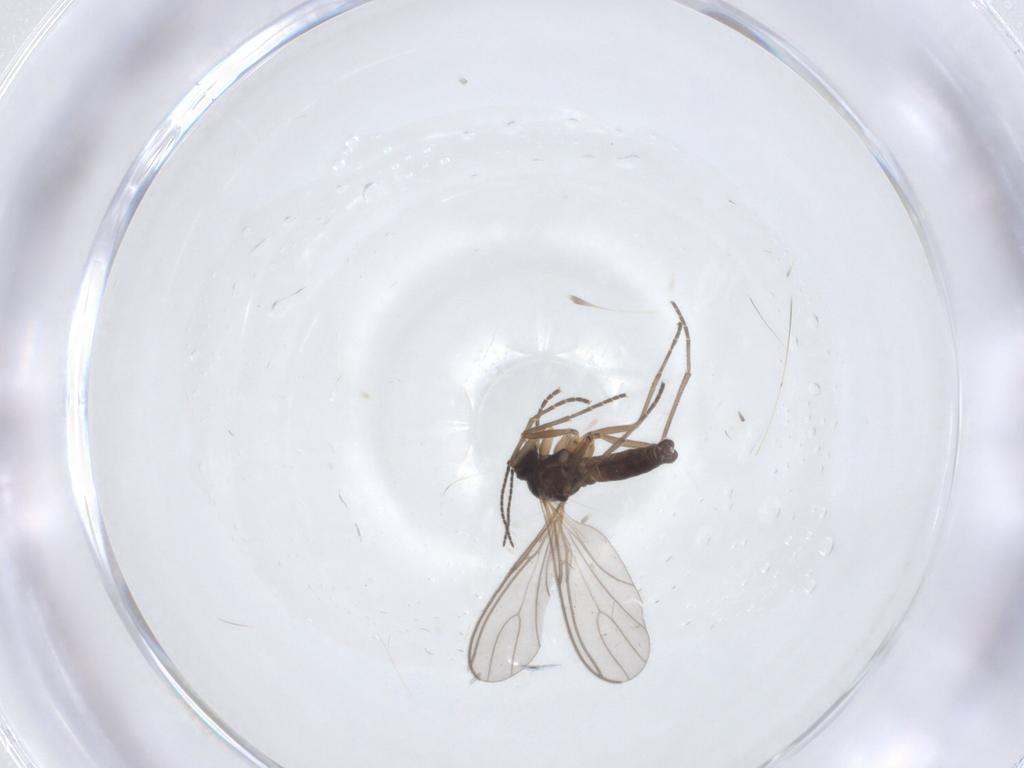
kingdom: Animalia
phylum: Arthropoda
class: Insecta
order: Diptera
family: Sciaridae
